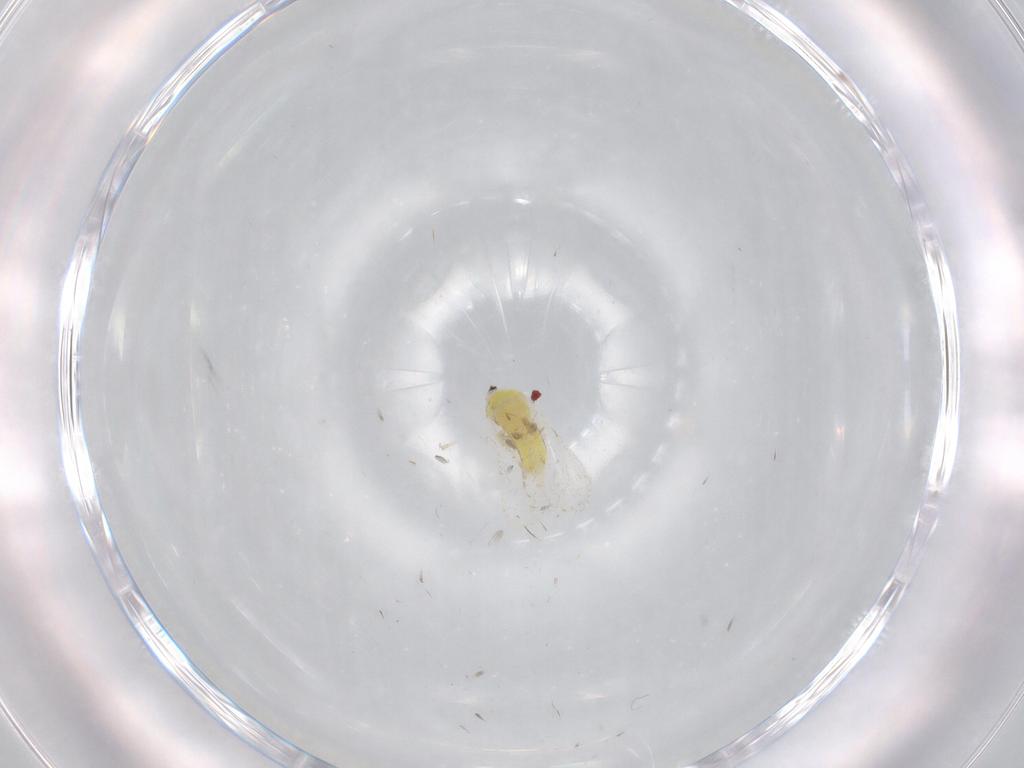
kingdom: Animalia
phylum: Arthropoda
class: Insecta
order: Hemiptera
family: Aleyrodidae
